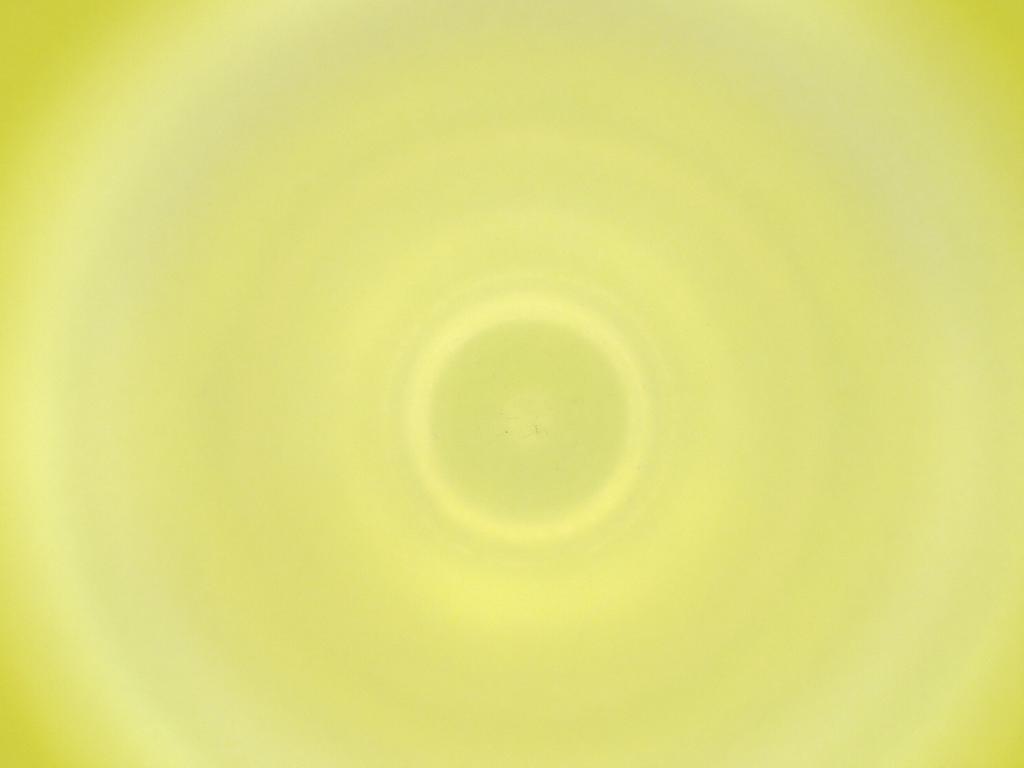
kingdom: Animalia
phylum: Arthropoda
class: Insecta
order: Diptera
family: Cecidomyiidae
